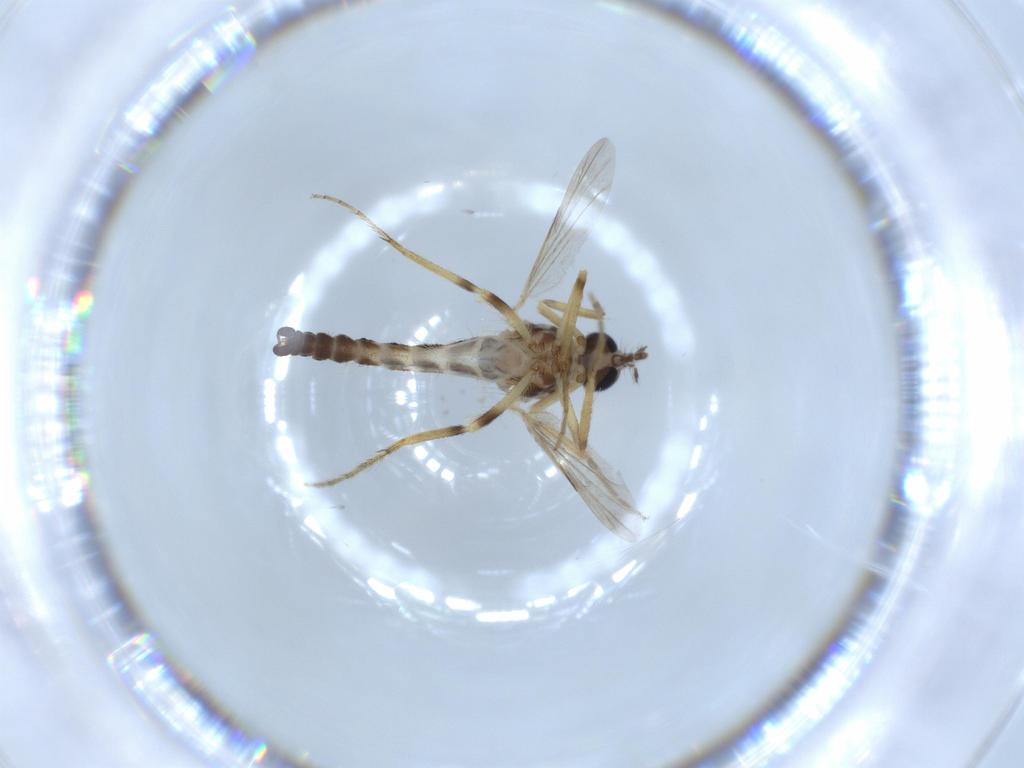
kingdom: Animalia
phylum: Arthropoda
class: Insecta
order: Diptera
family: Ceratopogonidae
